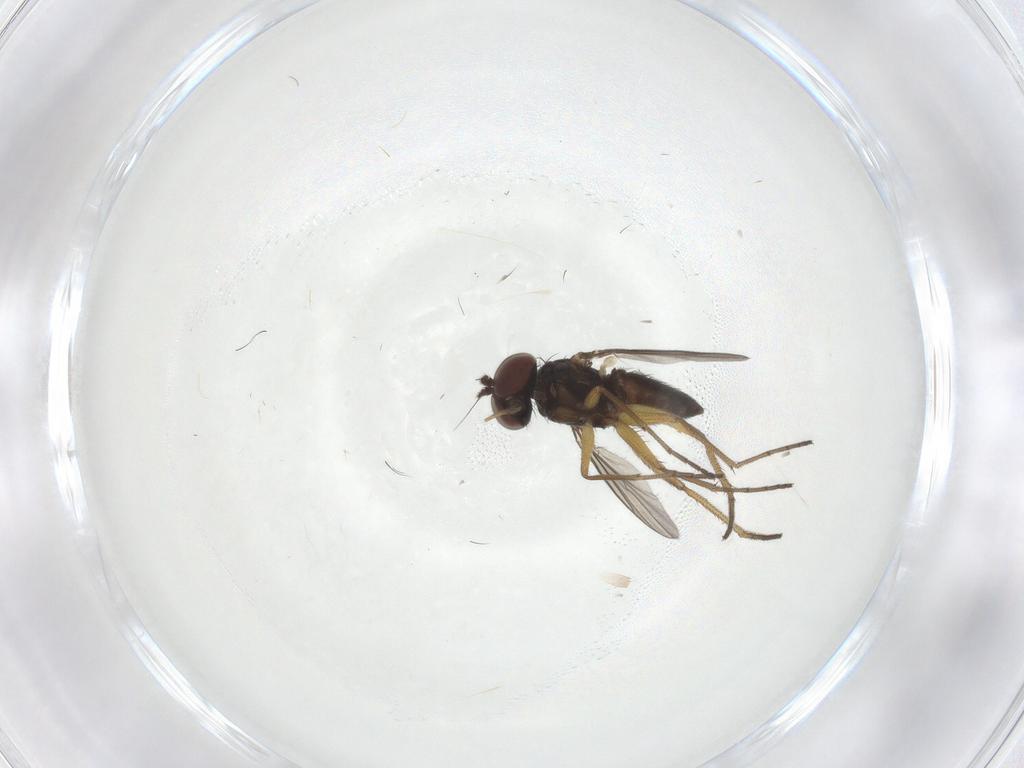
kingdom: Animalia
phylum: Arthropoda
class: Insecta
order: Diptera
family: Dolichopodidae
